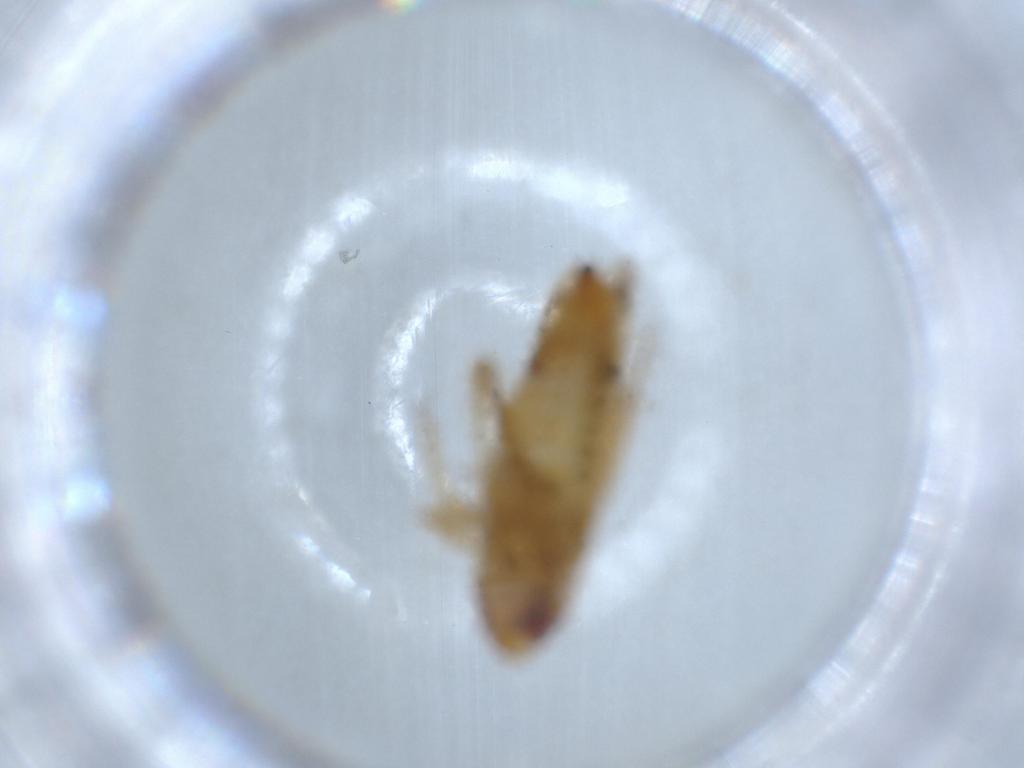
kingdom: Animalia
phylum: Arthropoda
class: Insecta
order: Hemiptera
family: Cicadellidae
